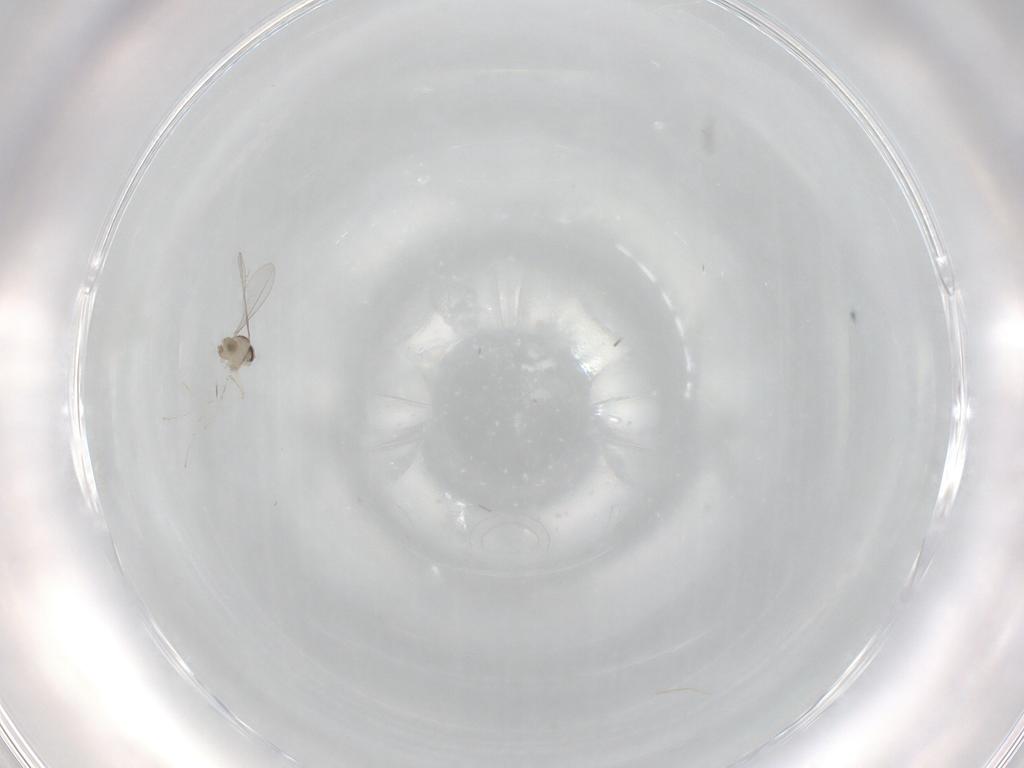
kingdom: Animalia
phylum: Arthropoda
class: Insecta
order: Diptera
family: Cecidomyiidae
